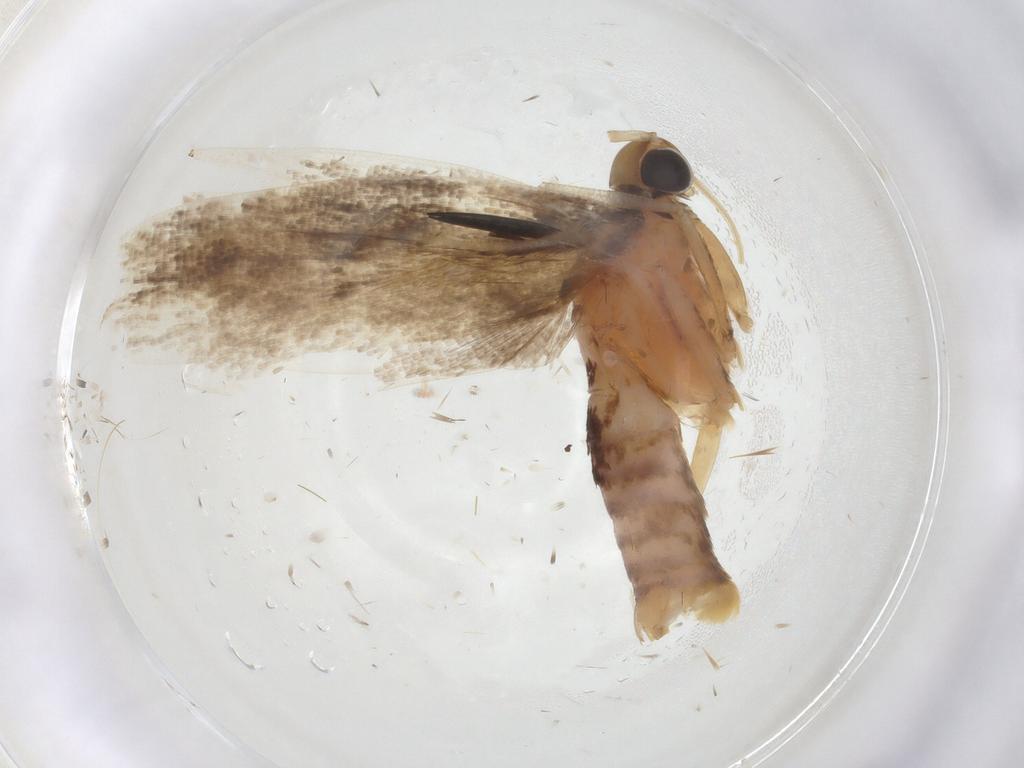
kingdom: Animalia
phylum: Arthropoda
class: Insecta
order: Lepidoptera
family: Gelechiidae
